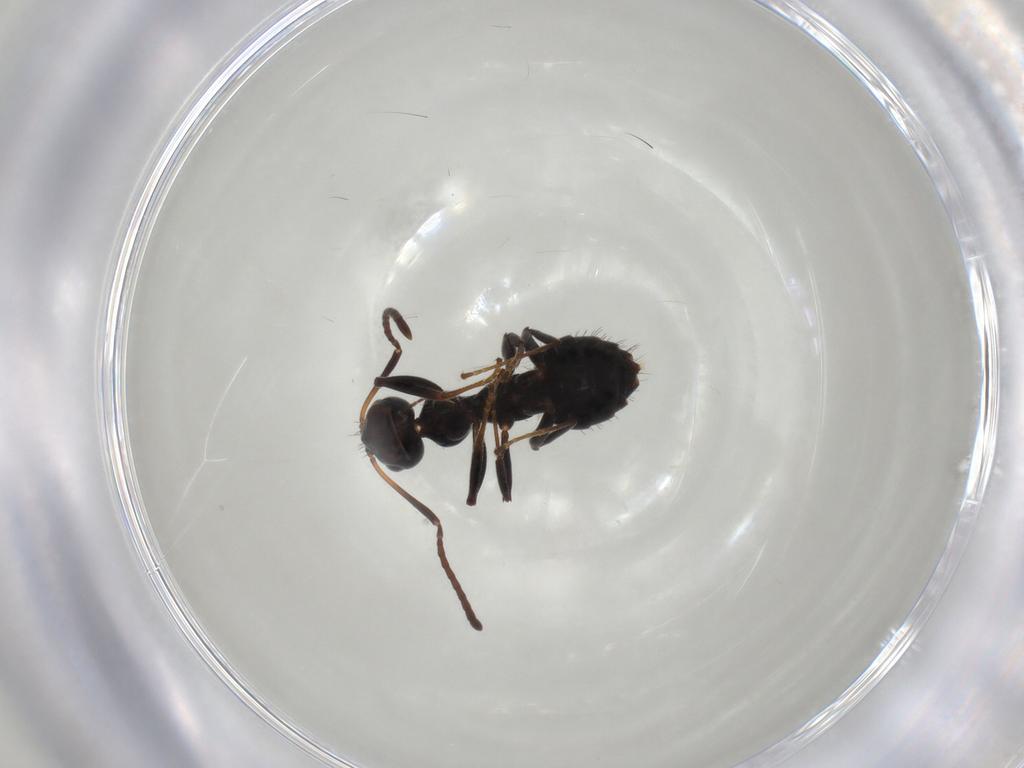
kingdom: Animalia
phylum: Arthropoda
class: Insecta
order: Hymenoptera
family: Formicidae
